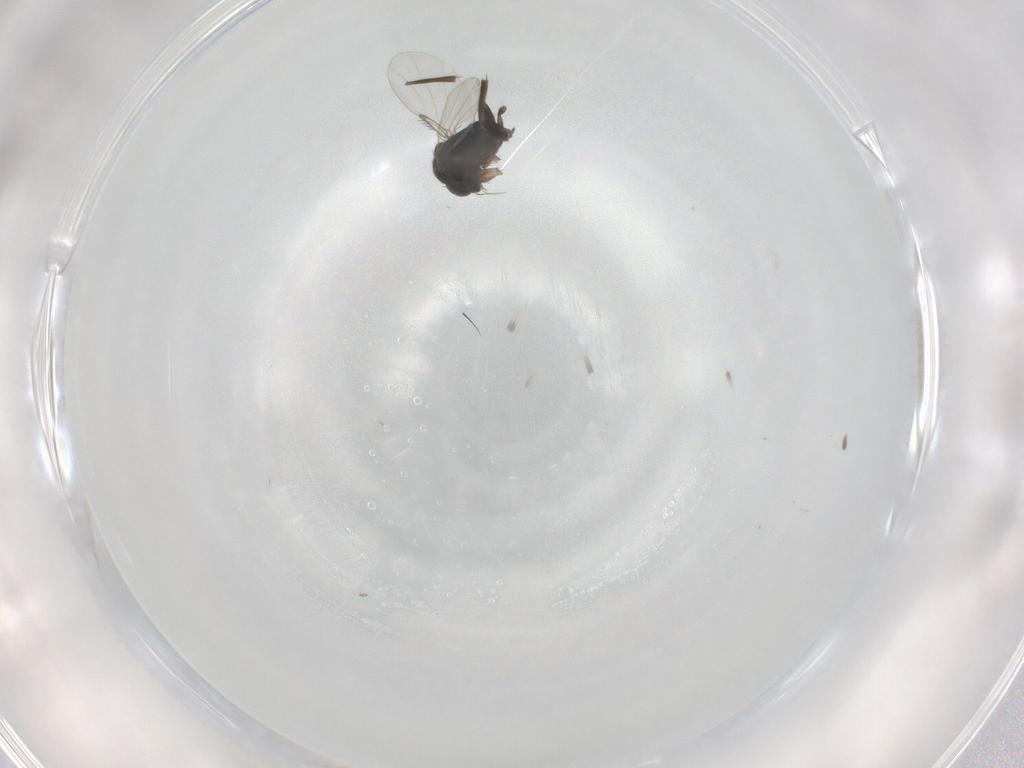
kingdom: Animalia
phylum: Arthropoda
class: Insecta
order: Diptera
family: Phoridae
